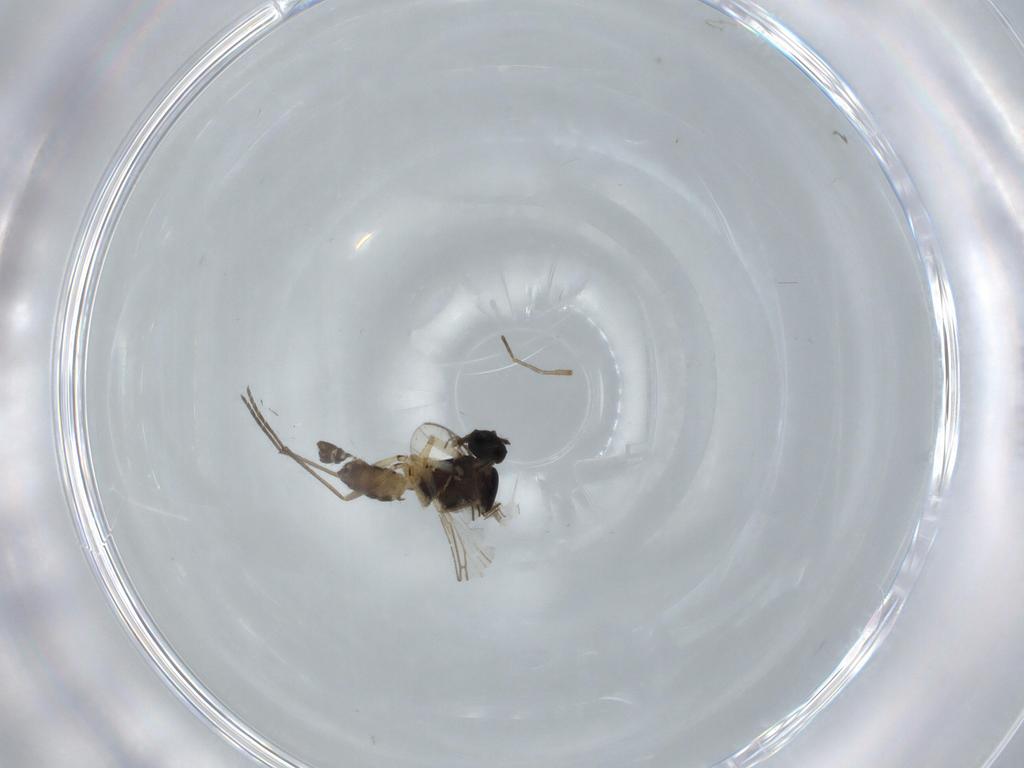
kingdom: Animalia
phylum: Arthropoda
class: Insecta
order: Diptera
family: Sciaridae
